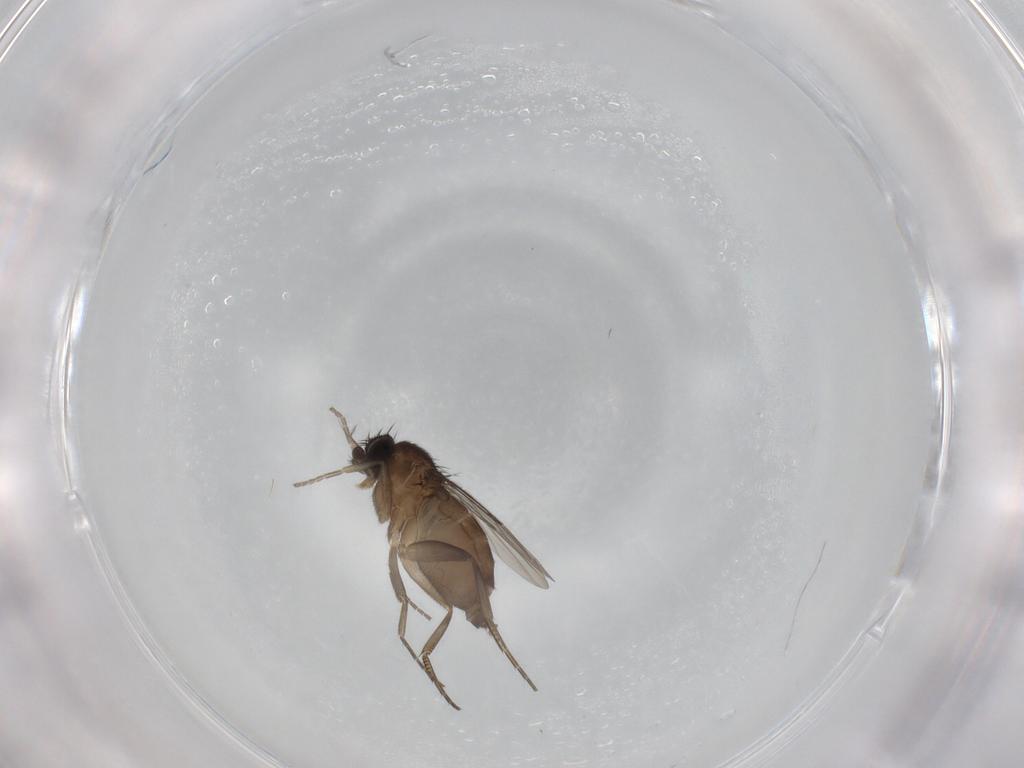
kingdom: Animalia
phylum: Arthropoda
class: Insecta
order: Diptera
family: Phoridae
